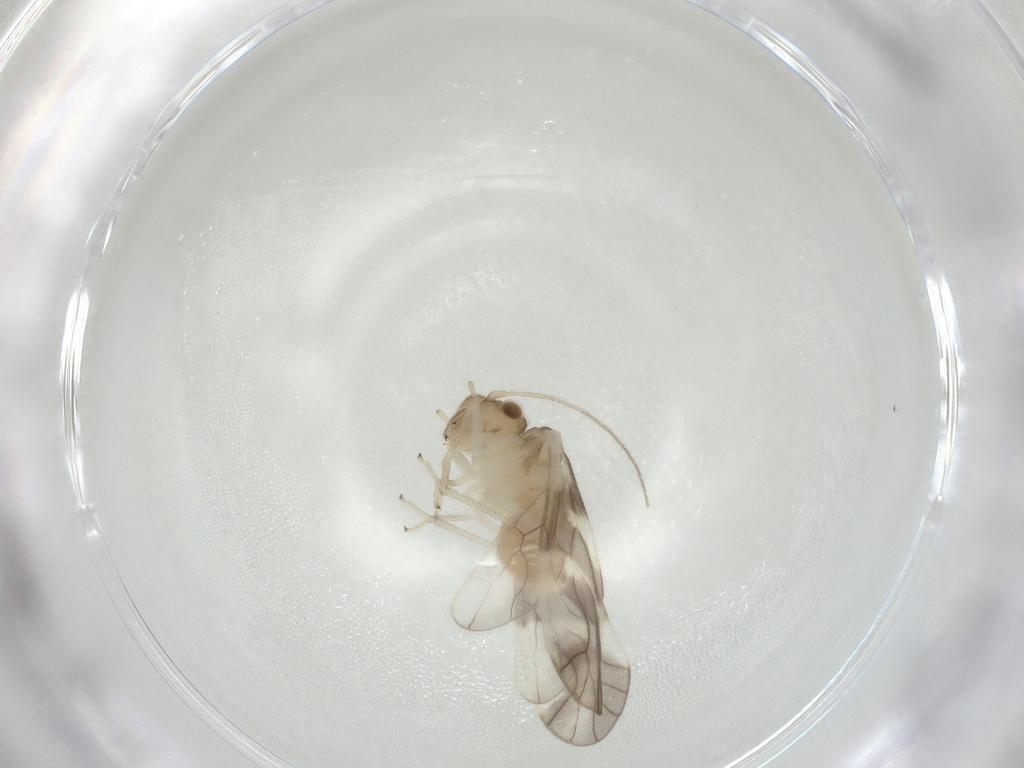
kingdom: Animalia
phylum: Arthropoda
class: Insecta
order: Psocodea
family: Caeciliusidae
